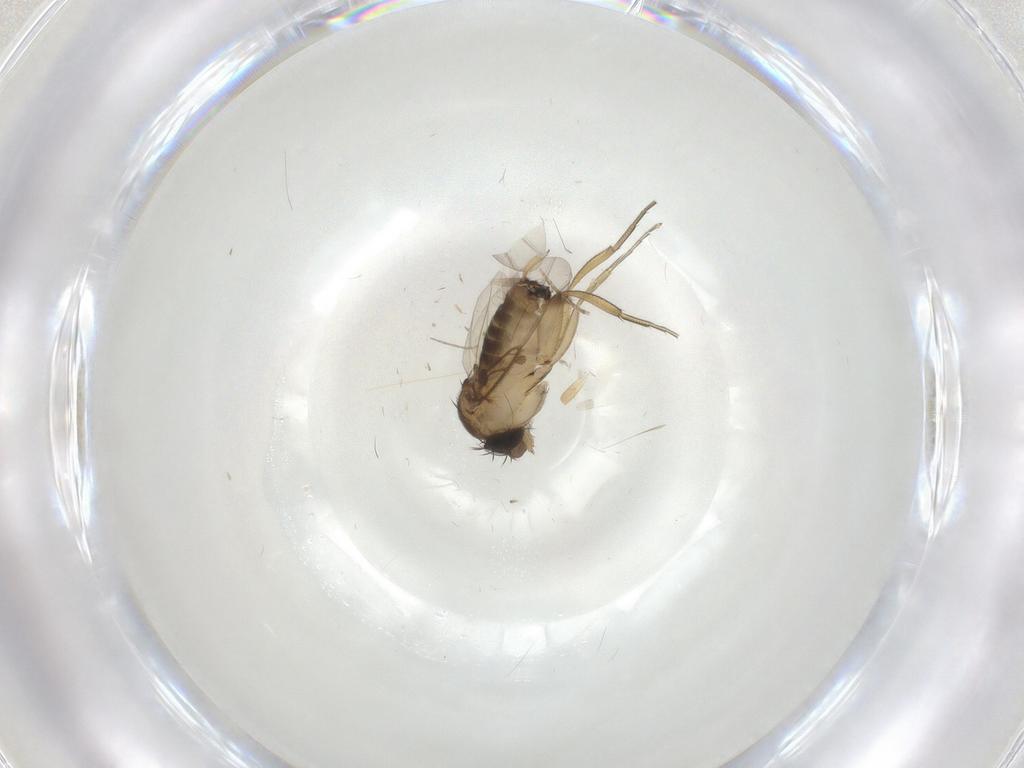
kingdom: Animalia
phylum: Arthropoda
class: Insecta
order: Diptera
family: Phoridae
